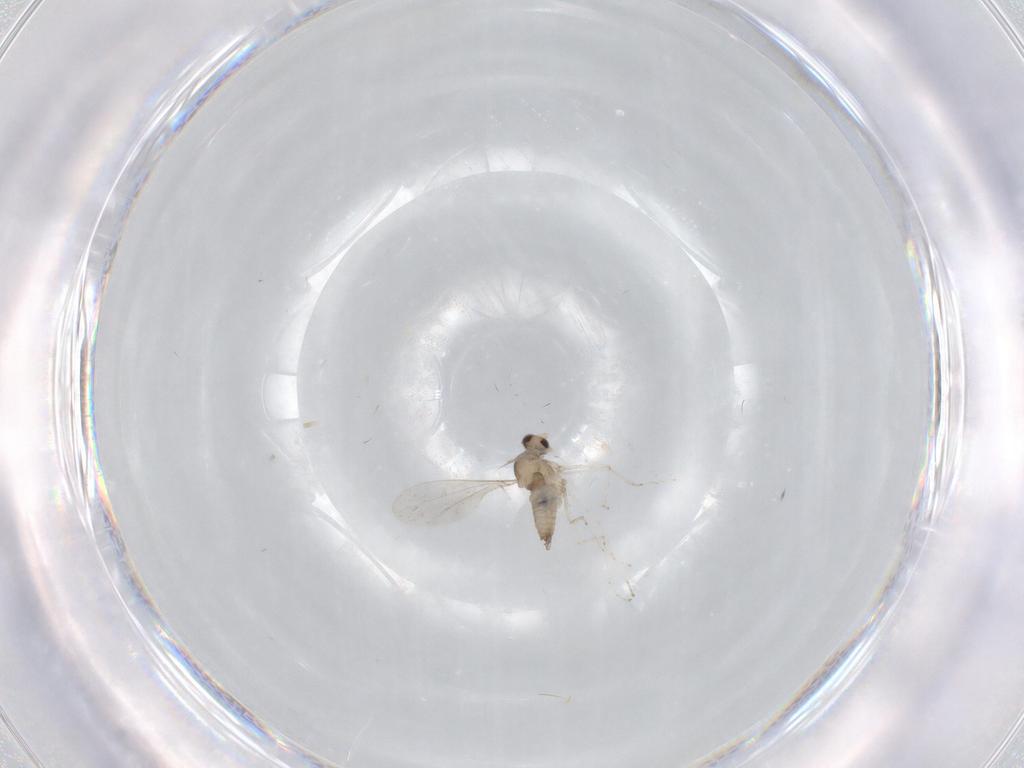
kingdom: Animalia
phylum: Arthropoda
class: Insecta
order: Diptera
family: Cecidomyiidae
